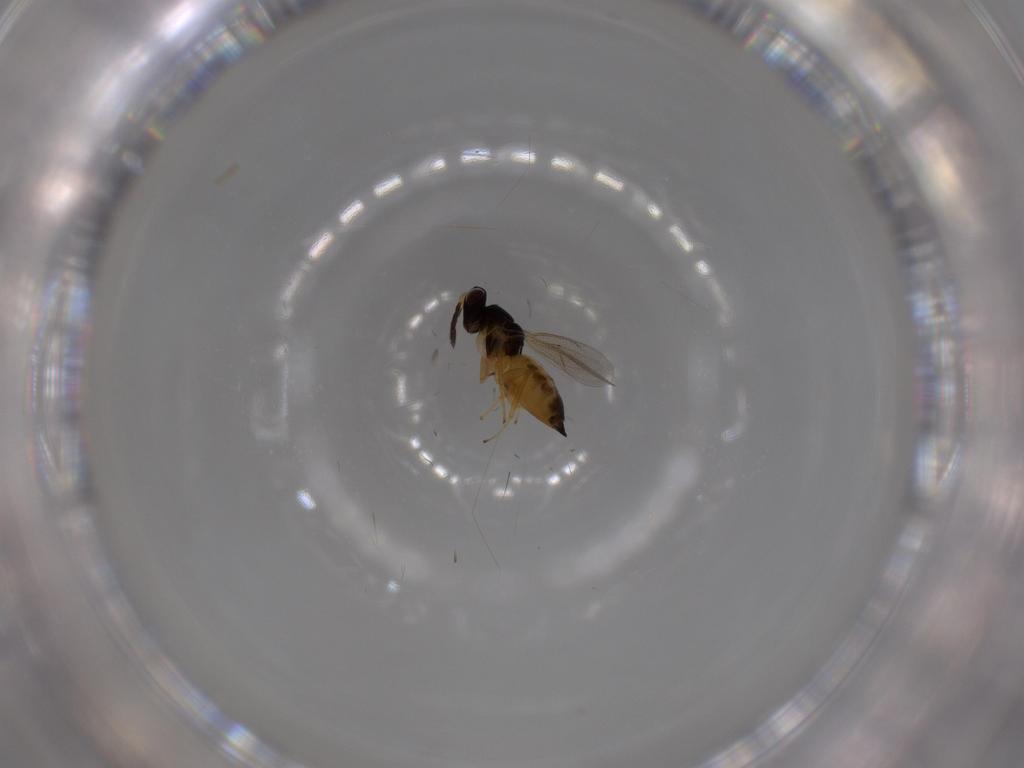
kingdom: Animalia
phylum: Arthropoda
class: Insecta
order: Hymenoptera
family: Eulophidae
